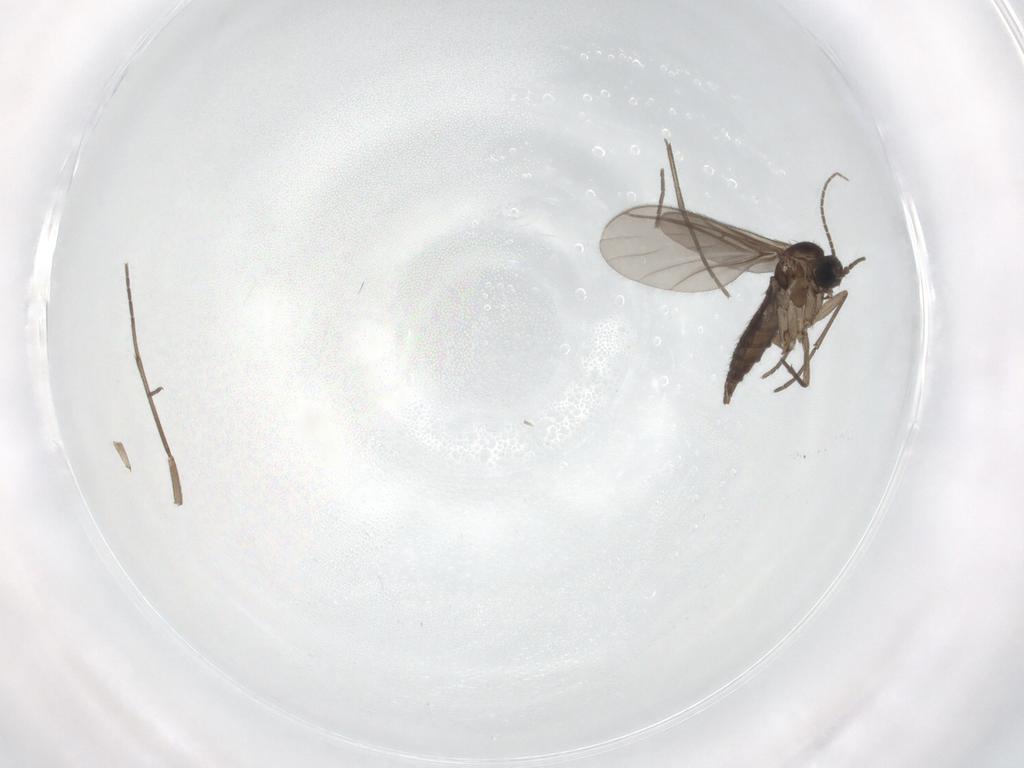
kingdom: Animalia
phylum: Arthropoda
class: Insecta
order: Diptera
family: Sciaridae
